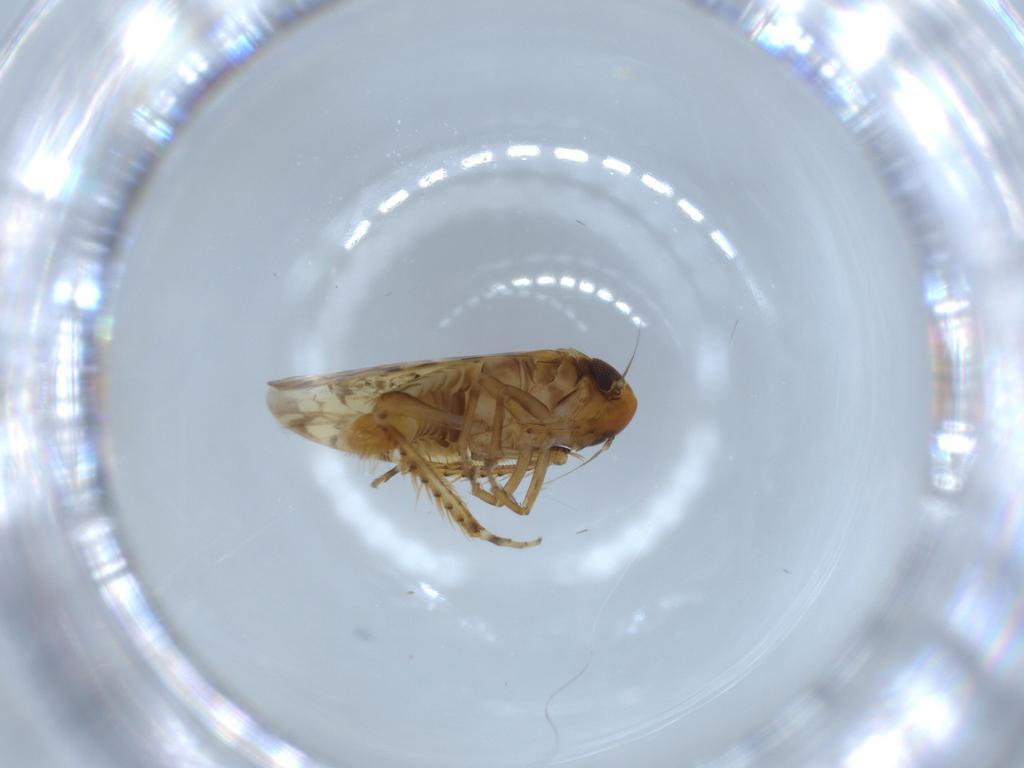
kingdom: Animalia
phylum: Arthropoda
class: Insecta
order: Hemiptera
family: Cicadellidae
